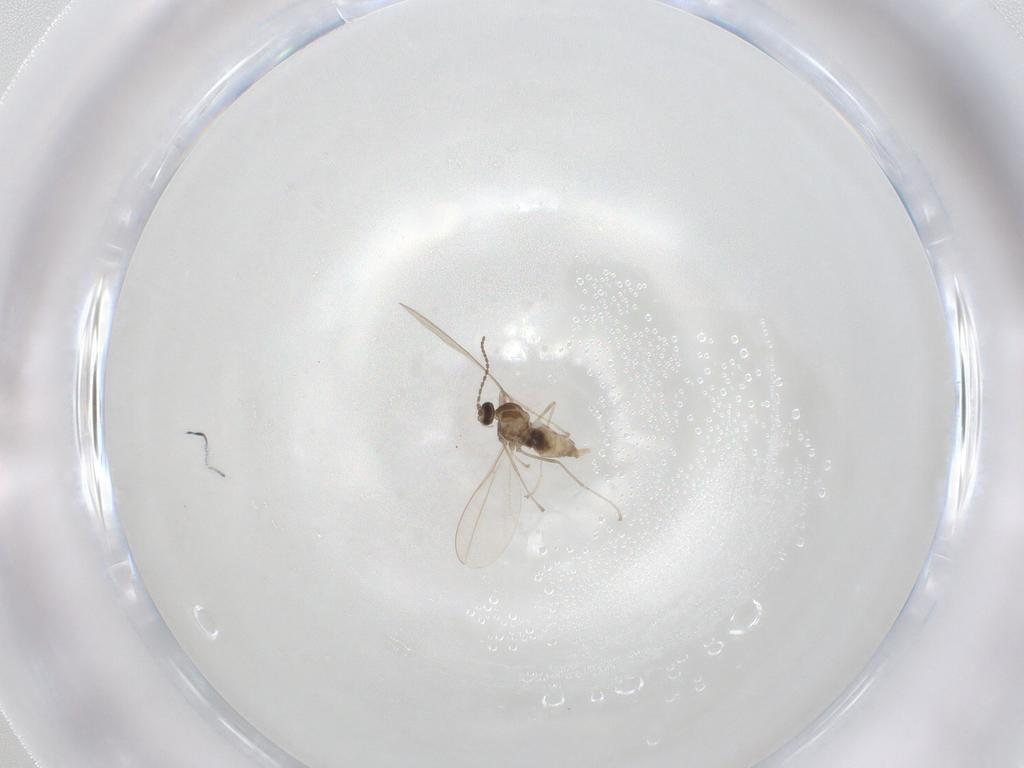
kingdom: Animalia
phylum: Arthropoda
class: Insecta
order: Diptera
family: Cecidomyiidae
